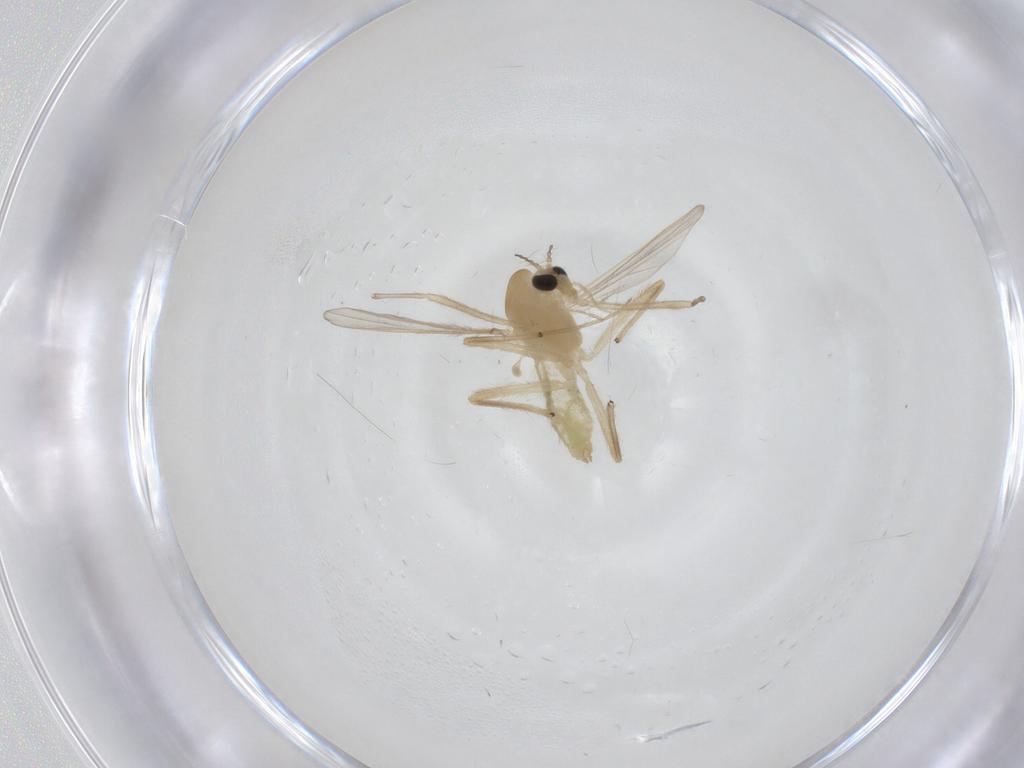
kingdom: Animalia
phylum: Arthropoda
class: Insecta
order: Diptera
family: Chironomidae
